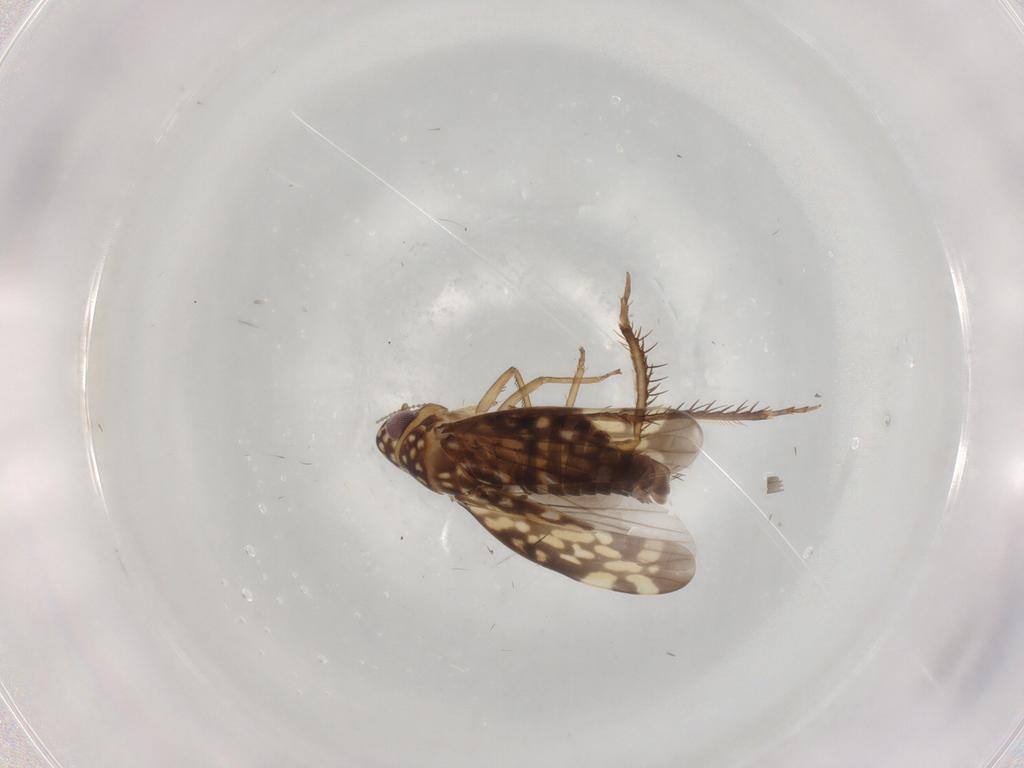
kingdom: Animalia
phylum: Arthropoda
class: Insecta
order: Hemiptera
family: Cicadellidae
